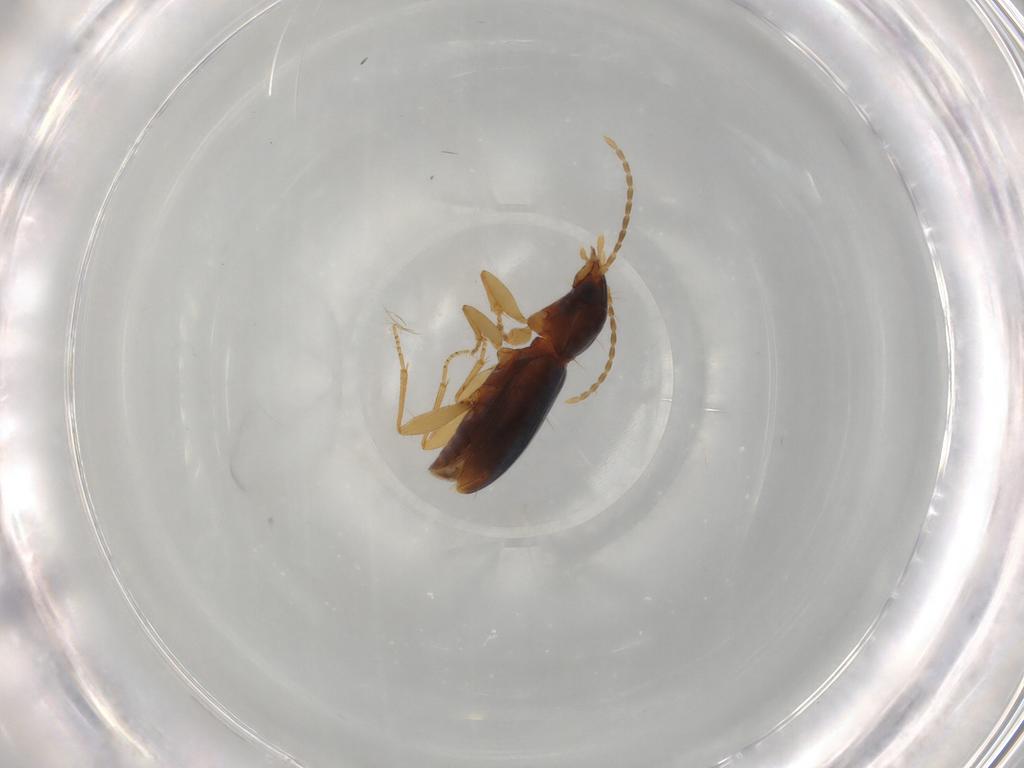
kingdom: Animalia
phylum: Arthropoda
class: Insecta
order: Coleoptera
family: Carabidae
